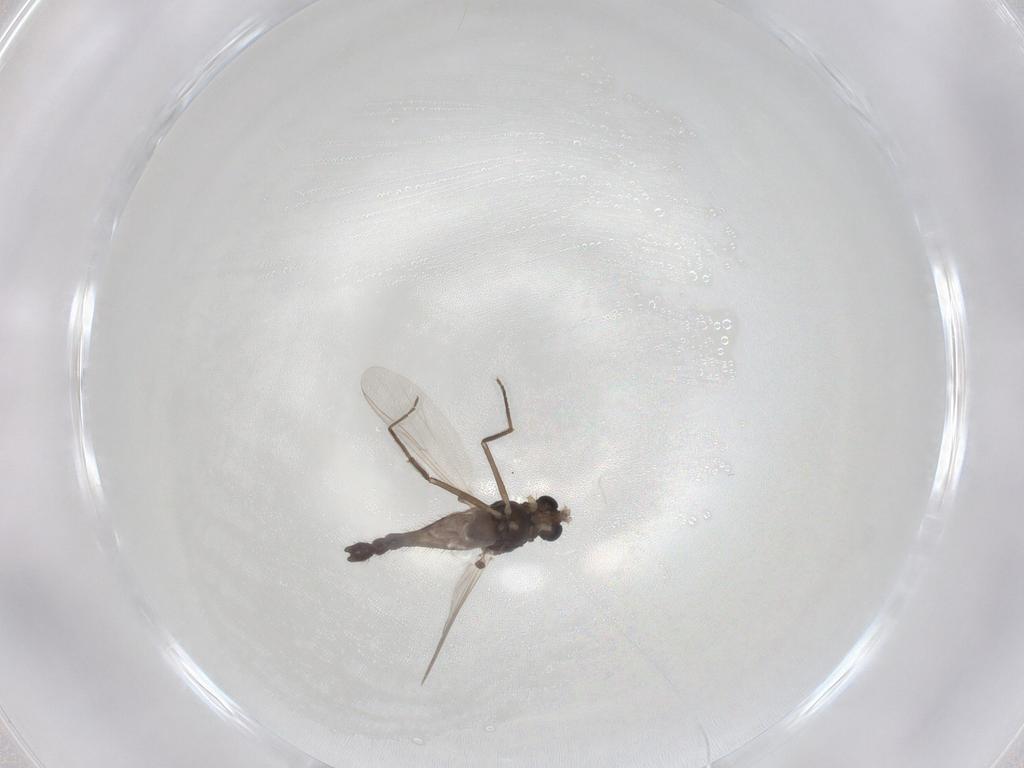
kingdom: Animalia
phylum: Arthropoda
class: Insecta
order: Diptera
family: Chironomidae
